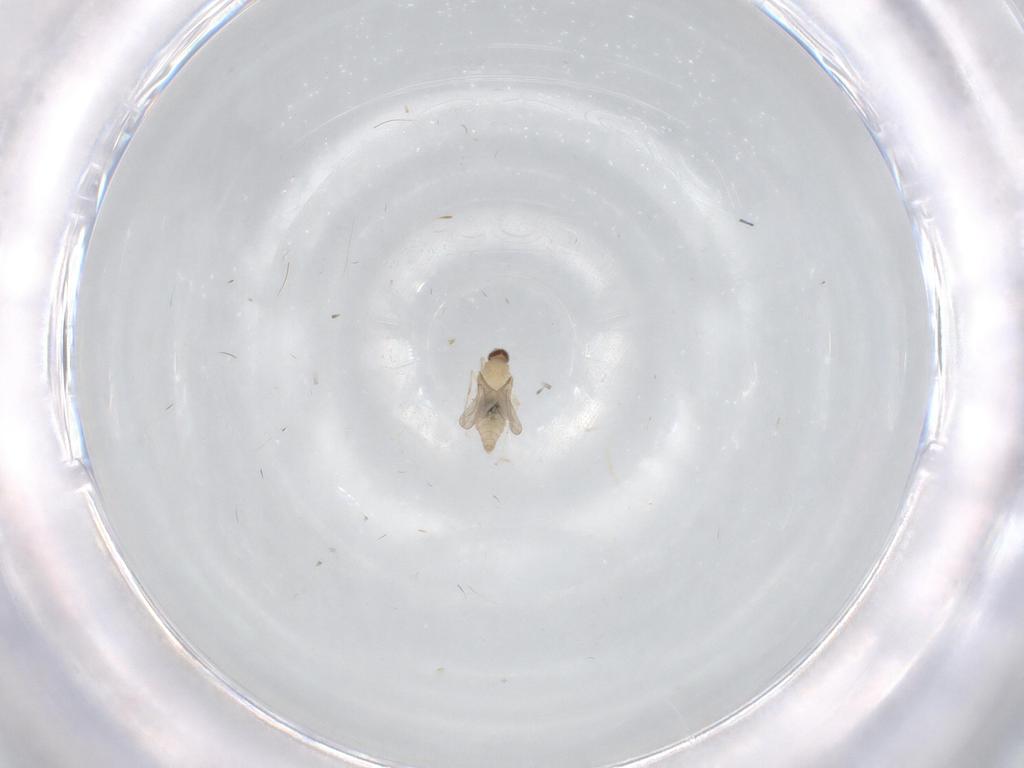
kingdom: Animalia
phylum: Arthropoda
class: Insecta
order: Diptera
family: Cecidomyiidae
